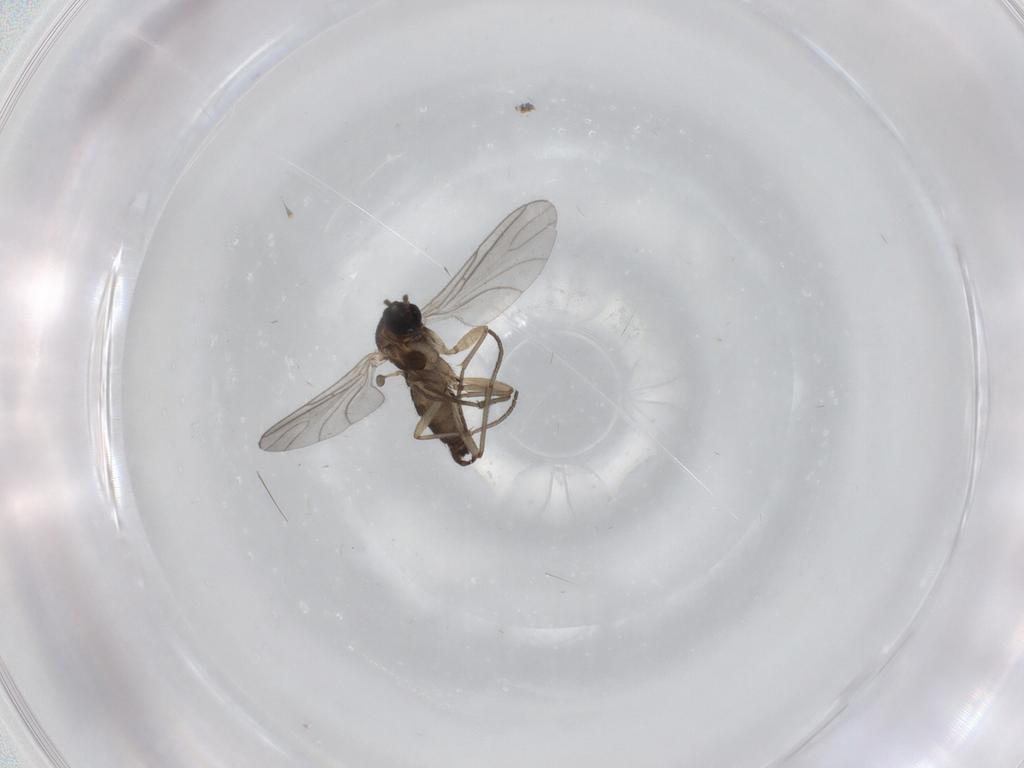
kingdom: Animalia
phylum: Arthropoda
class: Insecta
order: Diptera
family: Sciaridae
